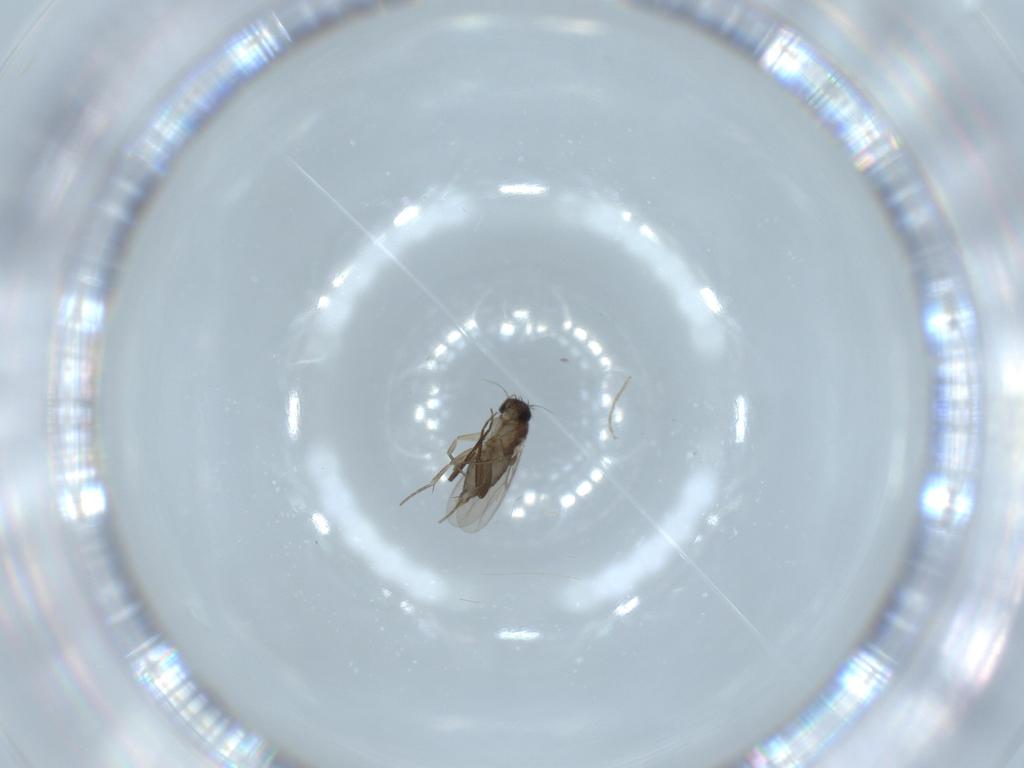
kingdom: Animalia
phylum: Arthropoda
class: Insecta
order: Diptera
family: Phoridae
